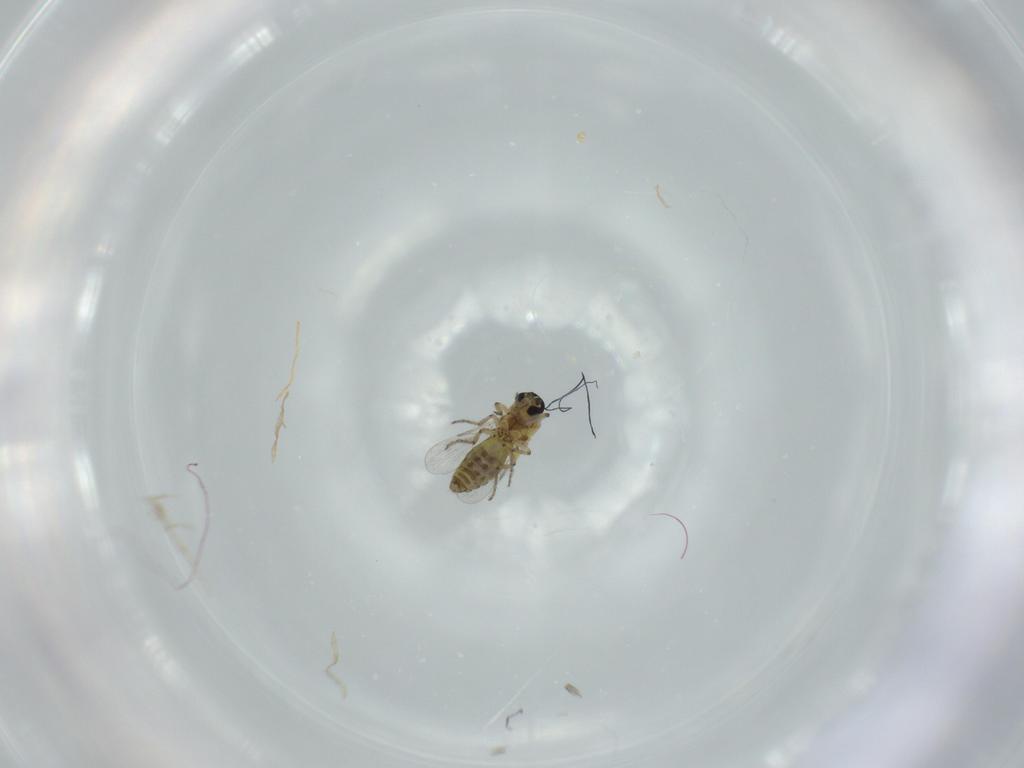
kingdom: Animalia
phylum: Arthropoda
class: Insecta
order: Diptera
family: Ceratopogonidae
